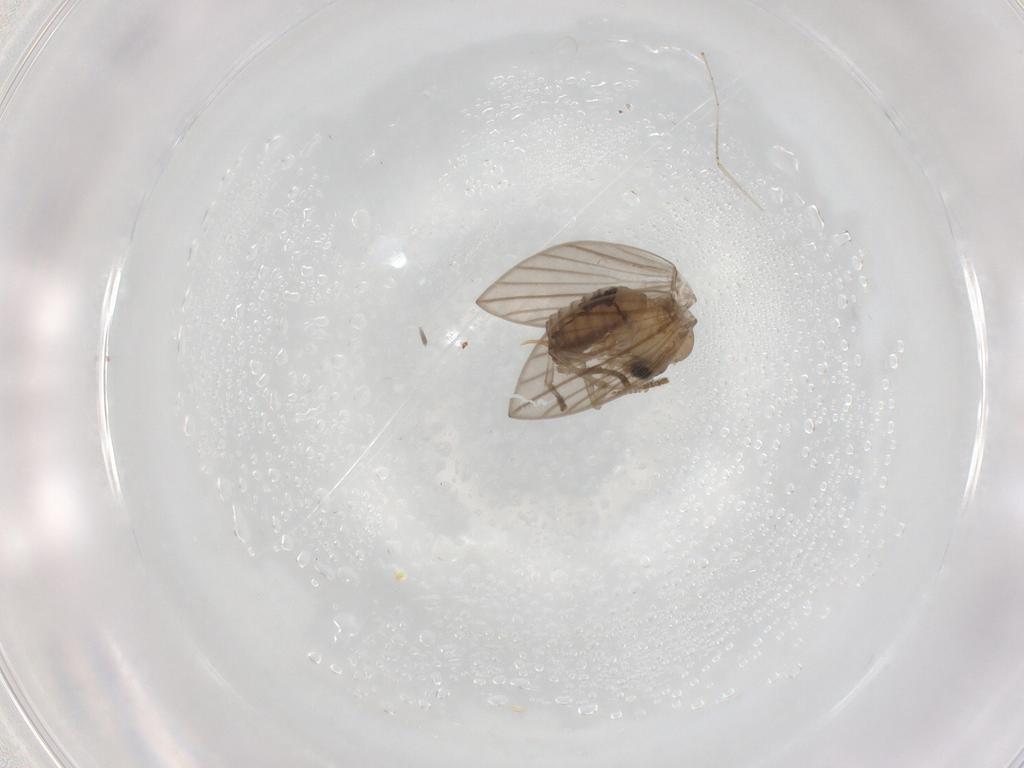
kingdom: Animalia
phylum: Arthropoda
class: Insecta
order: Diptera
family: Psychodidae
